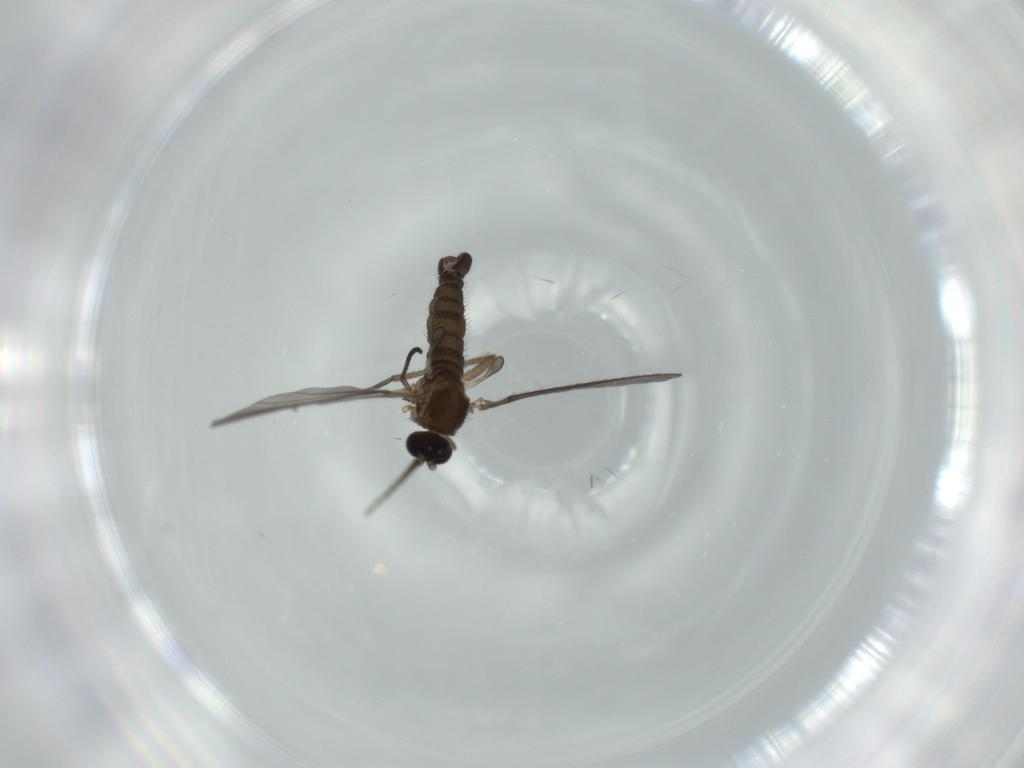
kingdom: Animalia
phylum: Arthropoda
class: Insecta
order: Diptera
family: Sciaridae
